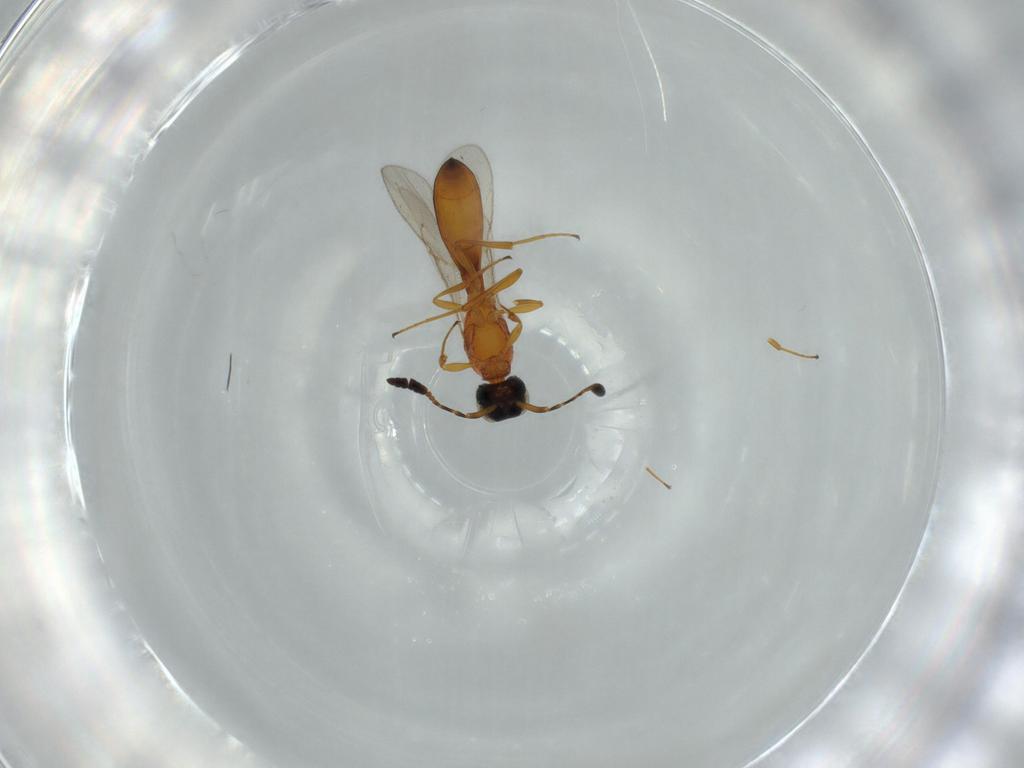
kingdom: Animalia
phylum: Arthropoda
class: Insecta
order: Hymenoptera
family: Scelionidae
